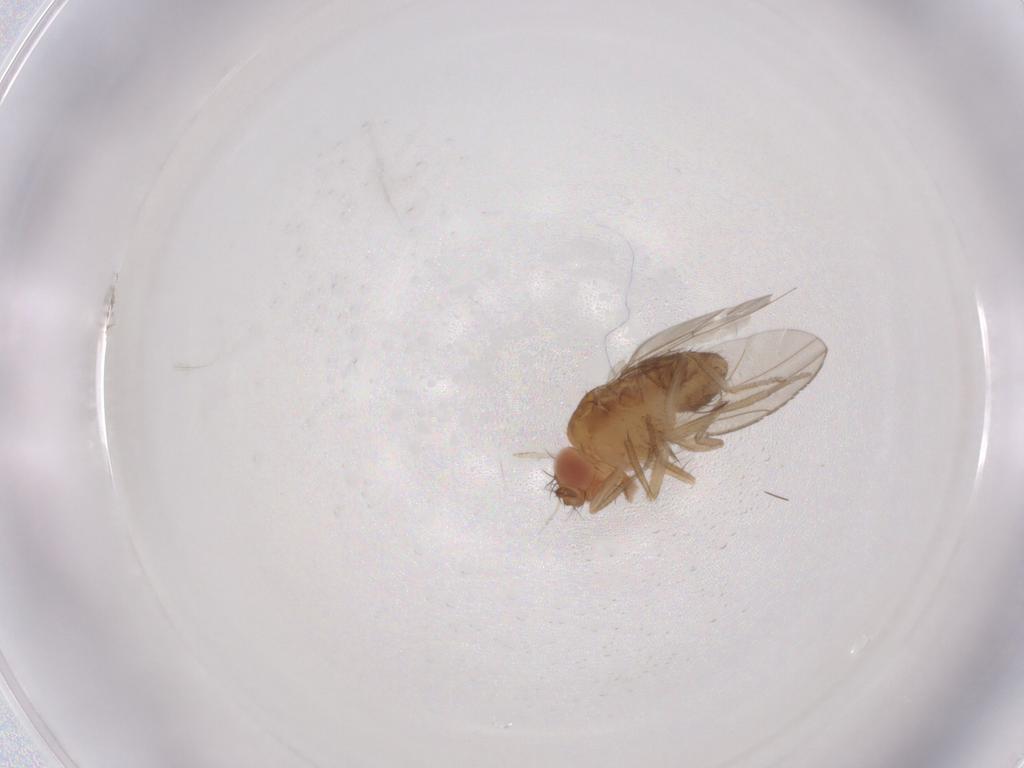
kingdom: Animalia
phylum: Arthropoda
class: Insecta
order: Diptera
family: Drosophilidae
